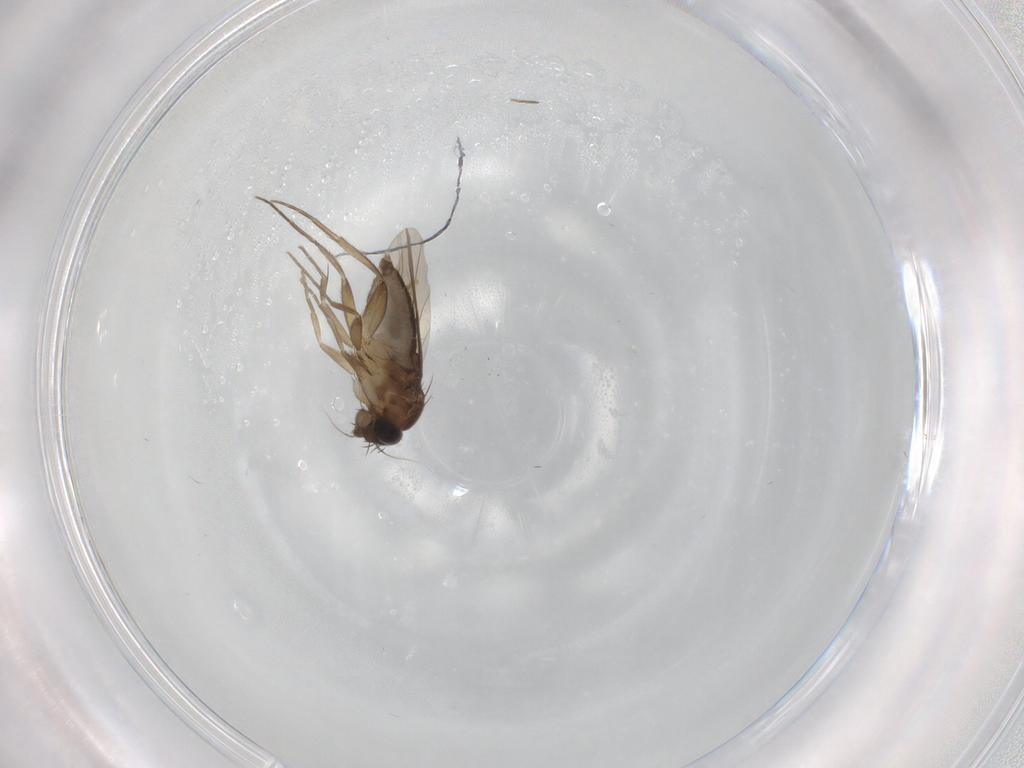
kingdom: Animalia
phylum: Arthropoda
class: Insecta
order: Diptera
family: Phoridae
